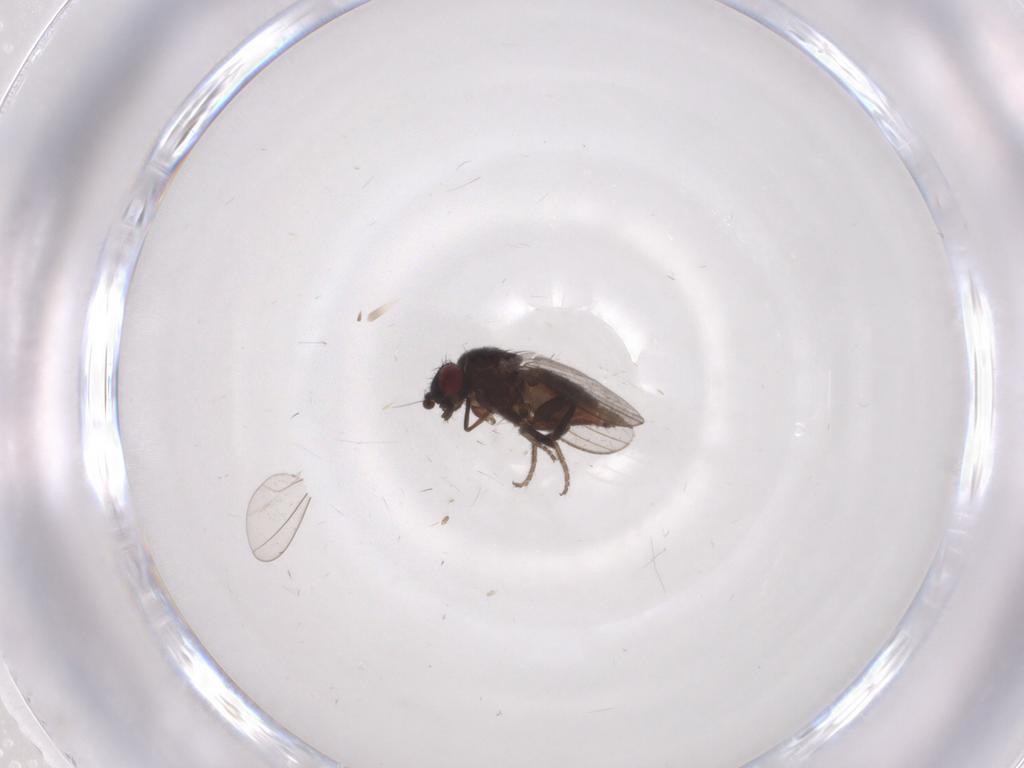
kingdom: Animalia
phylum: Arthropoda
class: Insecta
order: Diptera
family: Milichiidae
